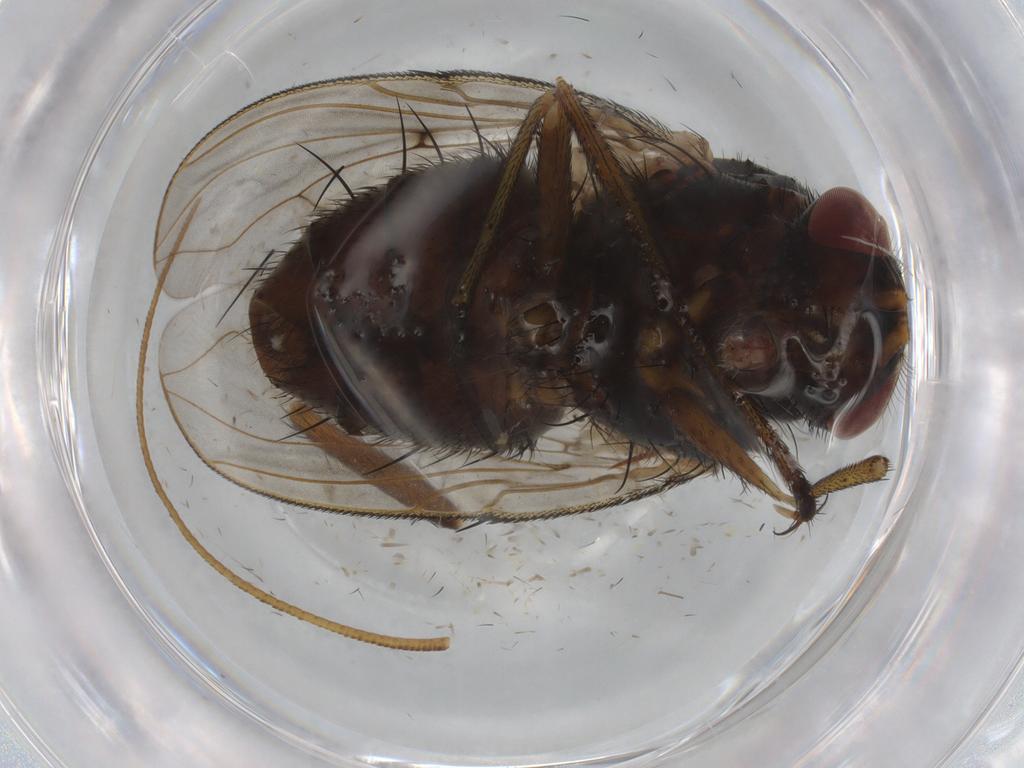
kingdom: Animalia
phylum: Arthropoda
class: Insecta
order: Diptera
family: Tachinidae
